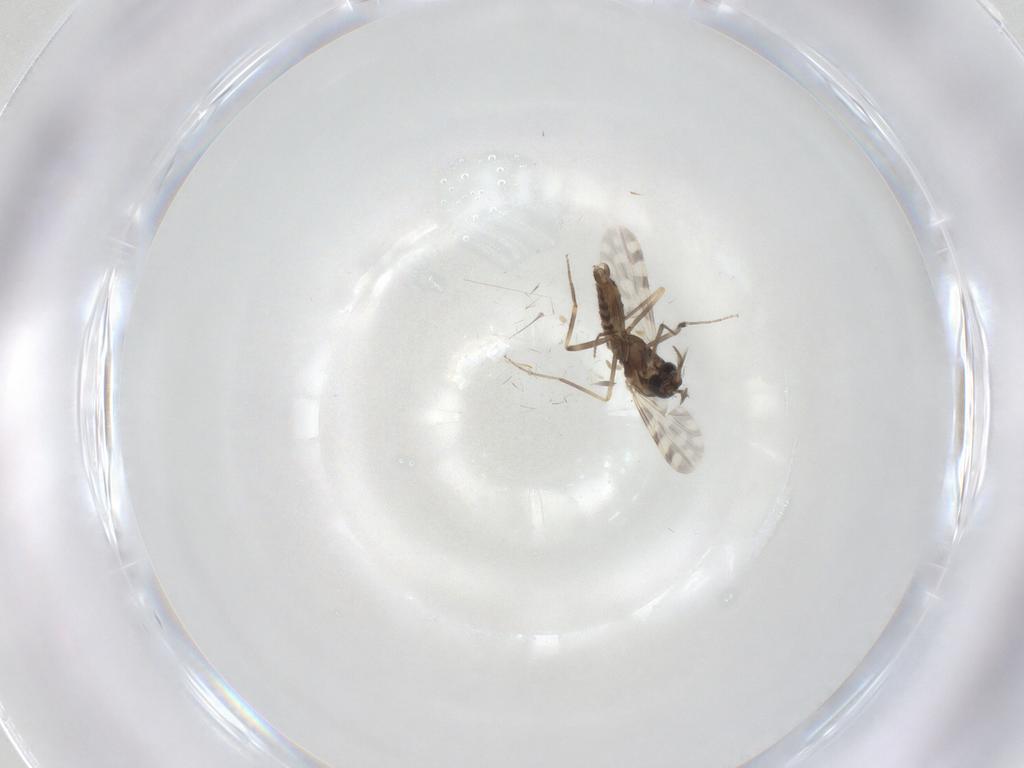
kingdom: Animalia
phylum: Arthropoda
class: Insecta
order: Diptera
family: Ceratopogonidae
